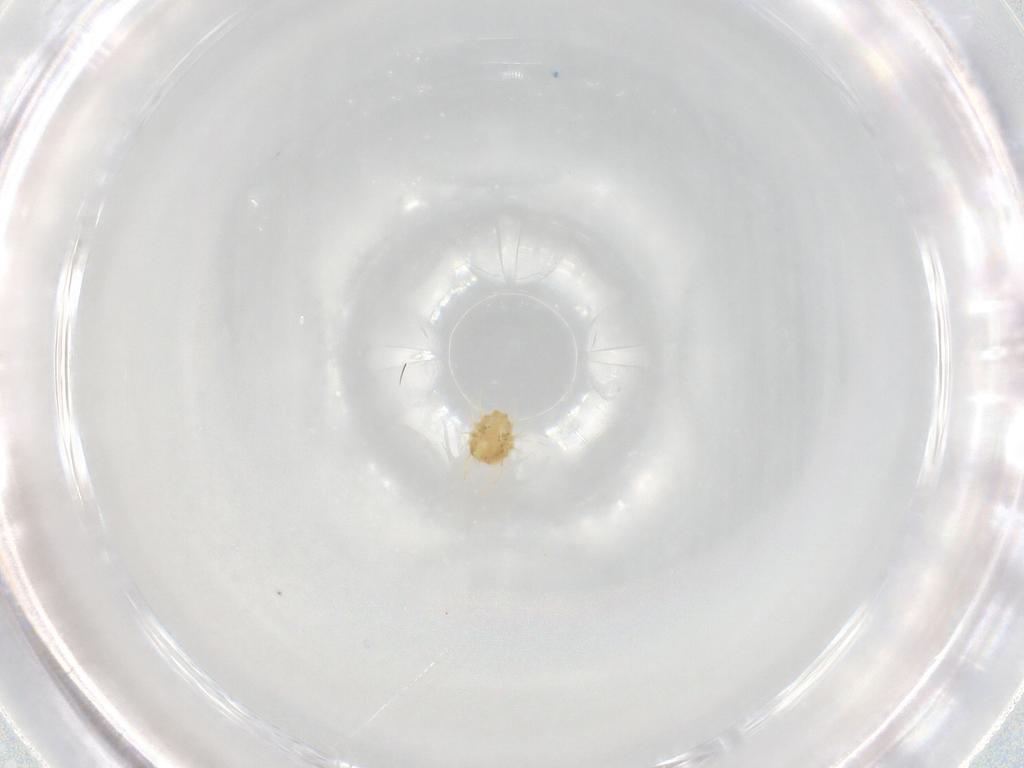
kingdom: Animalia
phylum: Arthropoda
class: Arachnida
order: Trombidiformes
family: Tetranychidae
